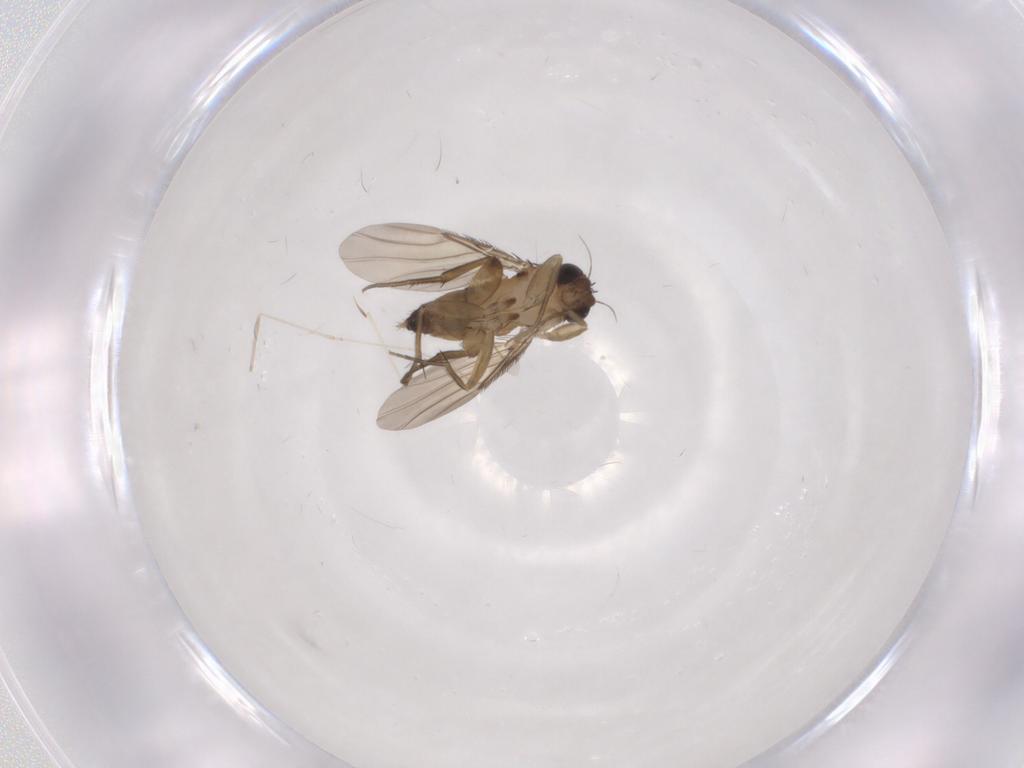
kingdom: Animalia
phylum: Arthropoda
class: Insecta
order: Diptera
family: Phoridae
